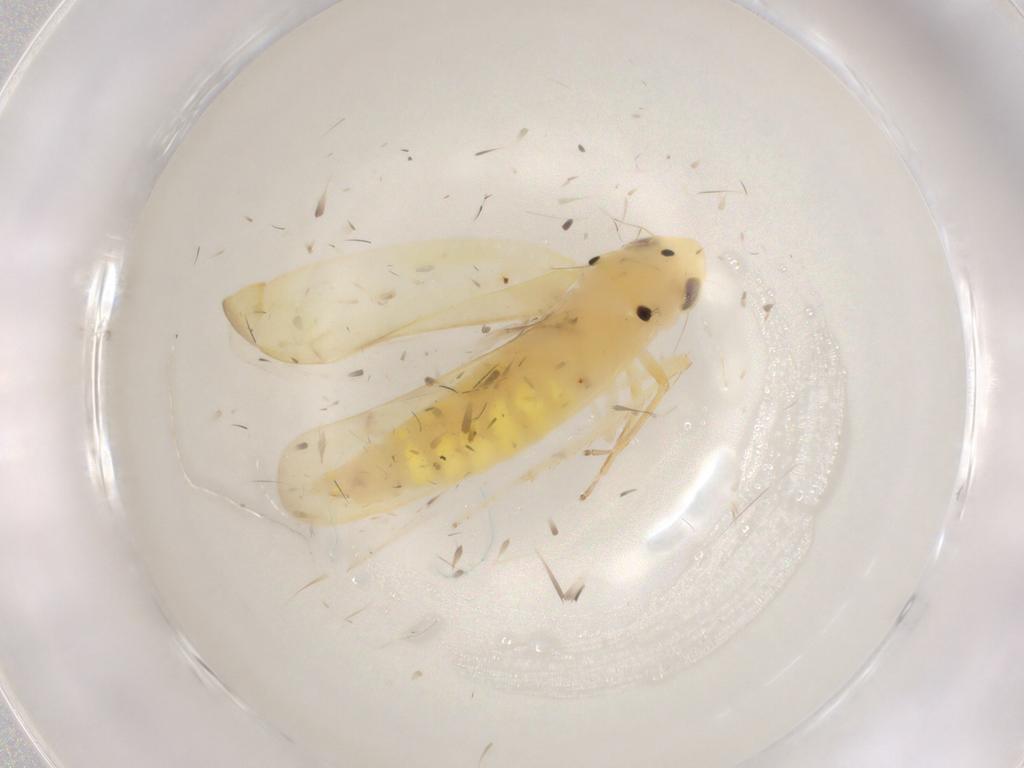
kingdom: Animalia
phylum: Arthropoda
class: Insecta
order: Hemiptera
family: Cicadellidae
